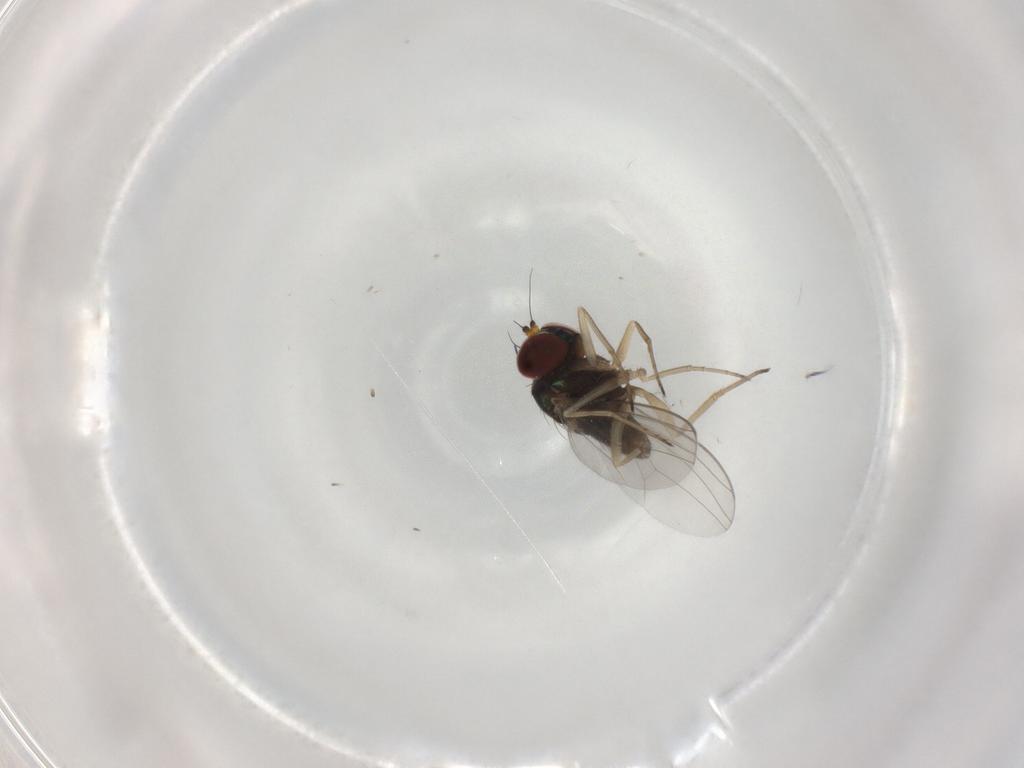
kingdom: Animalia
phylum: Arthropoda
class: Insecta
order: Diptera
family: Dolichopodidae
